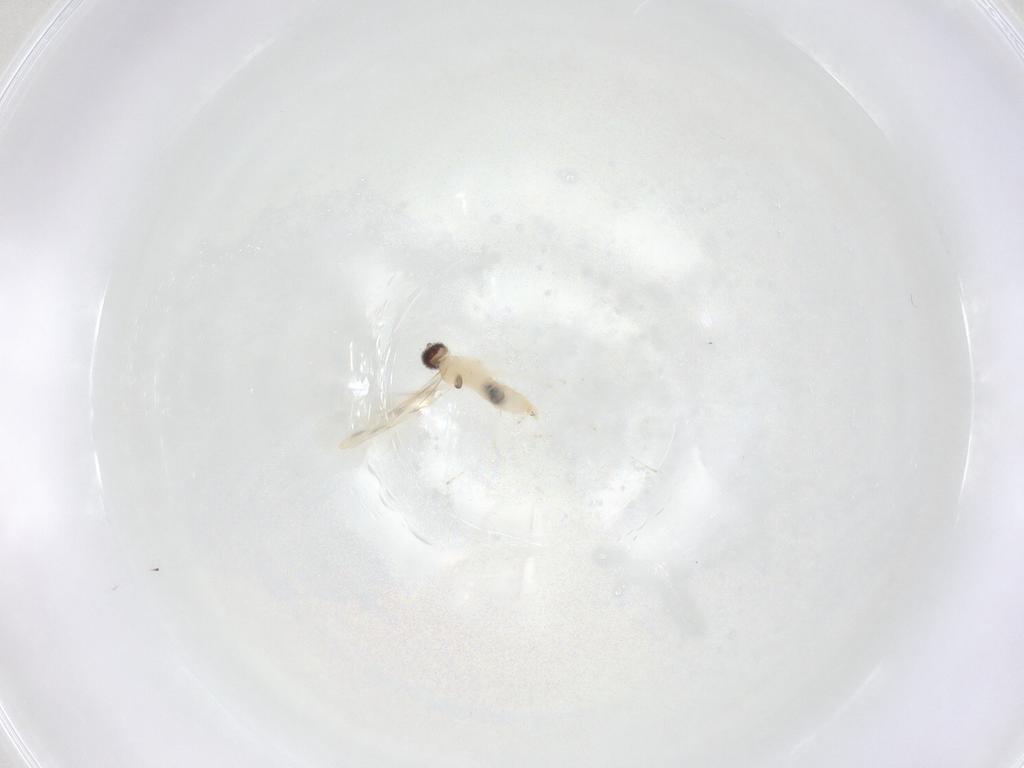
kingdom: Animalia
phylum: Arthropoda
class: Insecta
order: Diptera
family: Cecidomyiidae
